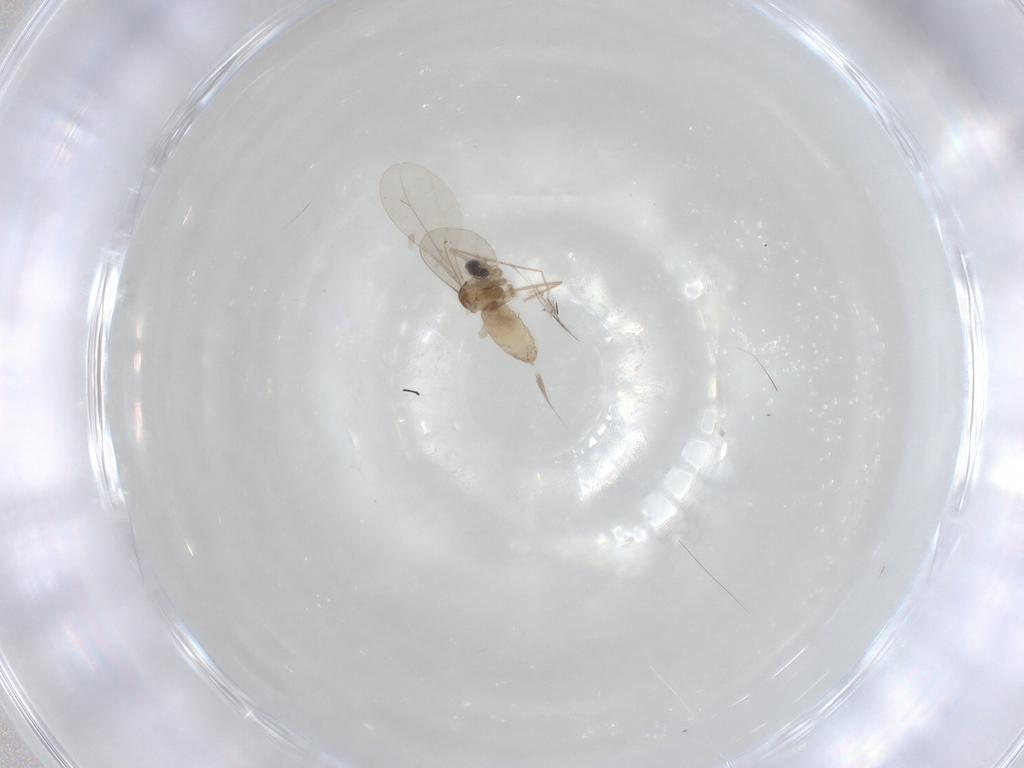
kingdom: Animalia
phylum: Arthropoda
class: Insecta
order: Diptera
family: Cecidomyiidae
